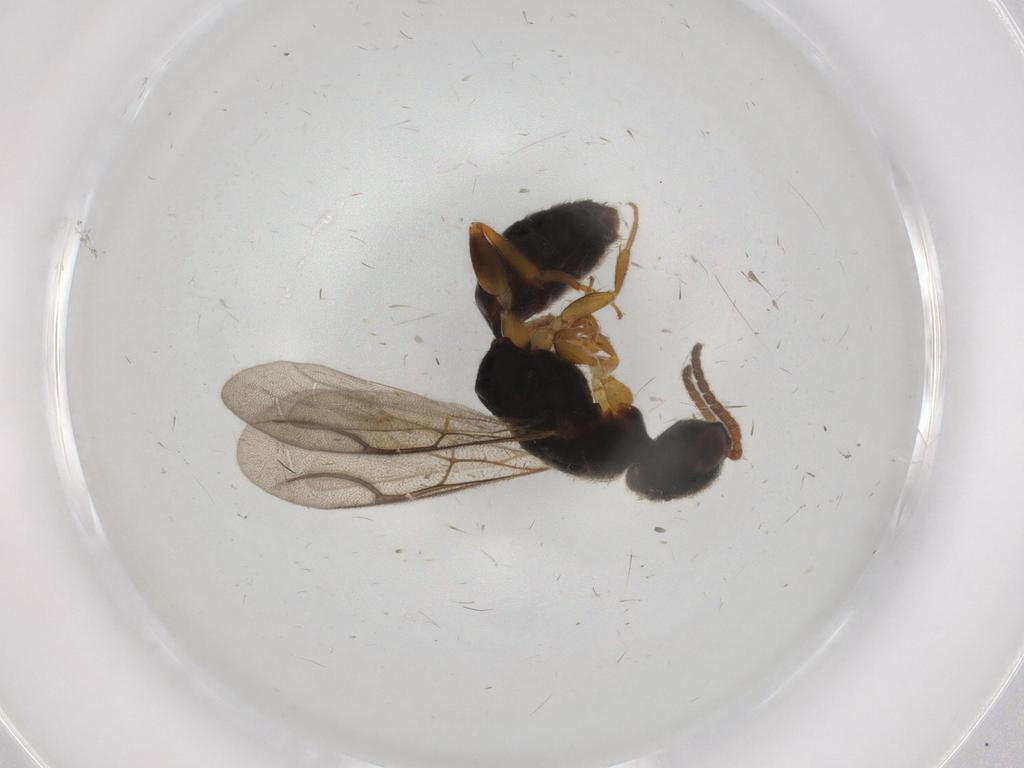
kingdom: Animalia
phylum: Arthropoda
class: Insecta
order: Hymenoptera
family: Bethylidae
